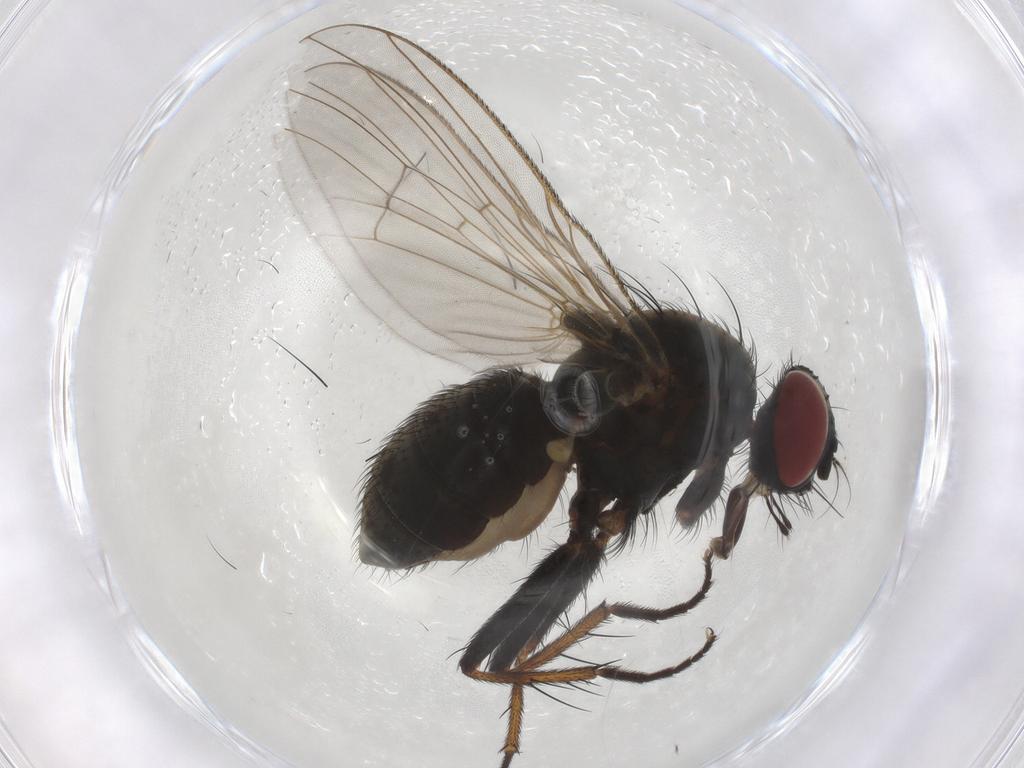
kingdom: Animalia
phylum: Arthropoda
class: Insecta
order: Diptera
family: Muscidae
